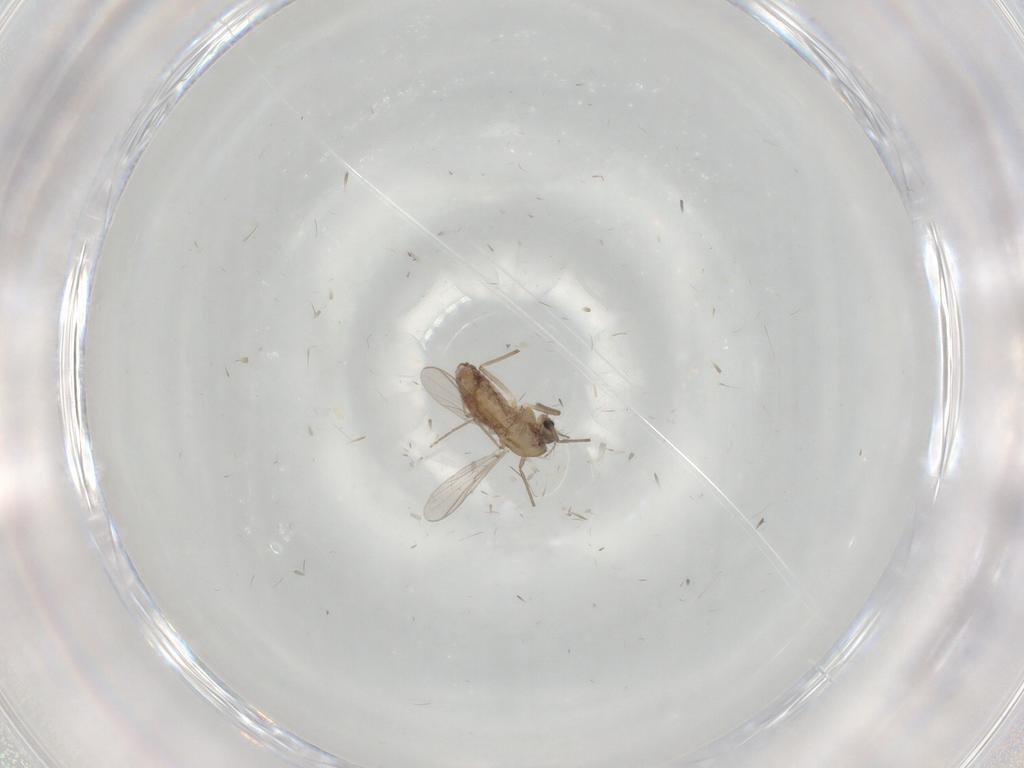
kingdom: Animalia
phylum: Arthropoda
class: Insecta
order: Diptera
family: Chironomidae
